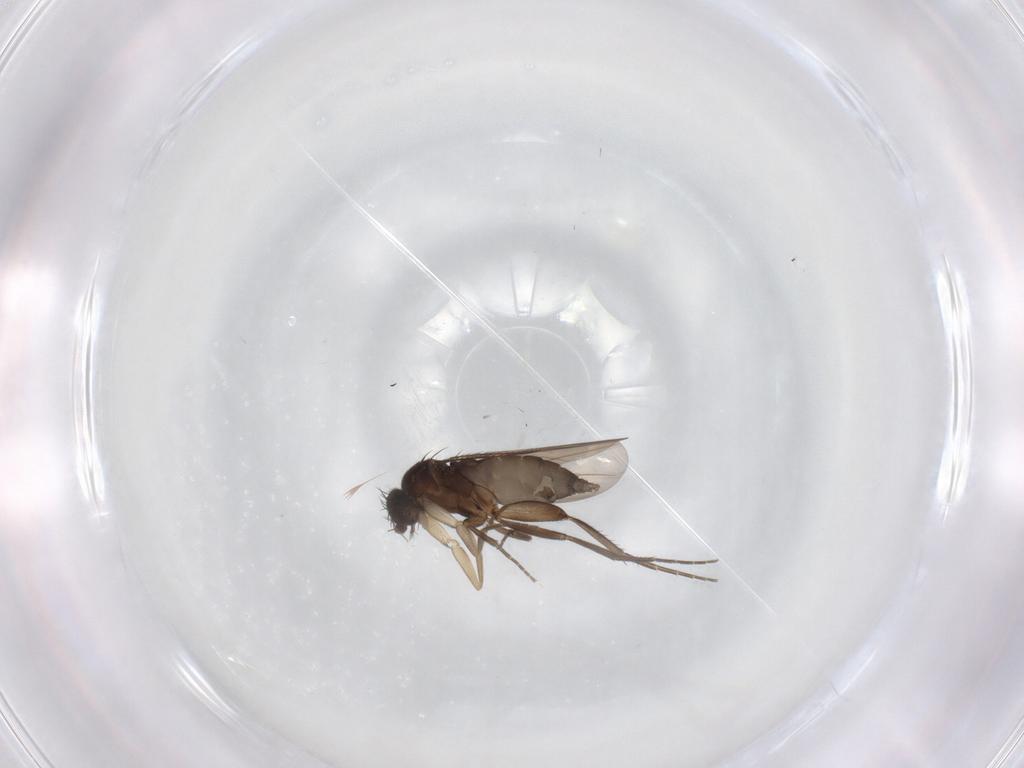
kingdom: Animalia
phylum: Arthropoda
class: Insecta
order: Diptera
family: Phoridae
